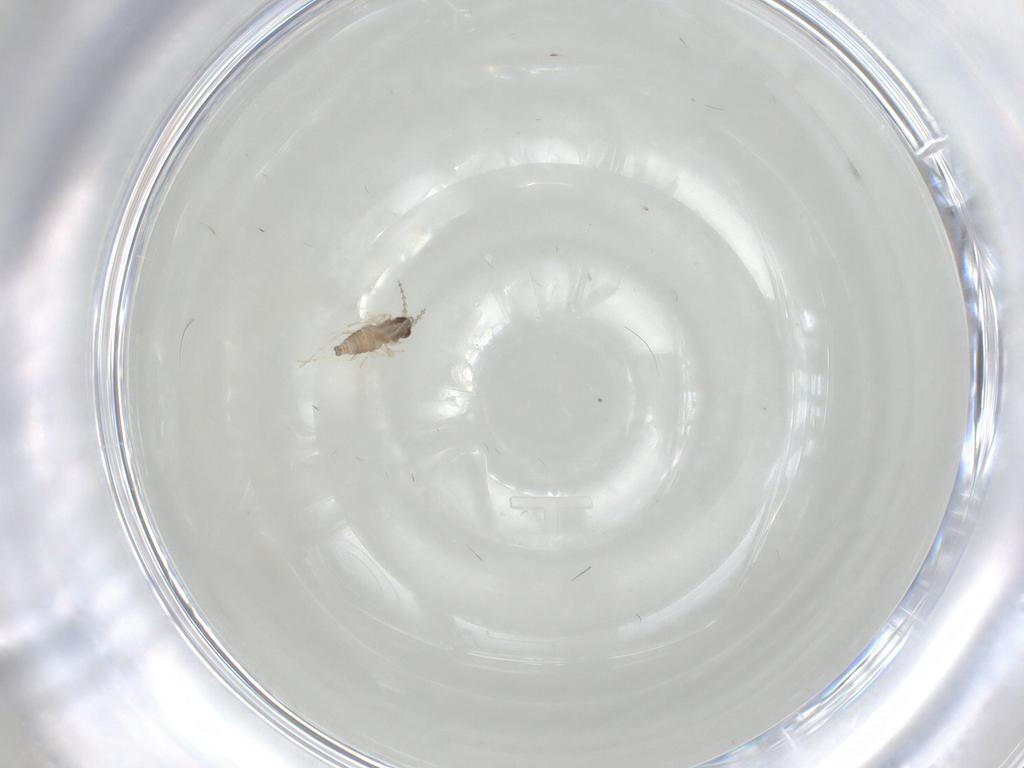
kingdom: Animalia
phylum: Arthropoda
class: Insecta
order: Diptera
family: Cecidomyiidae
